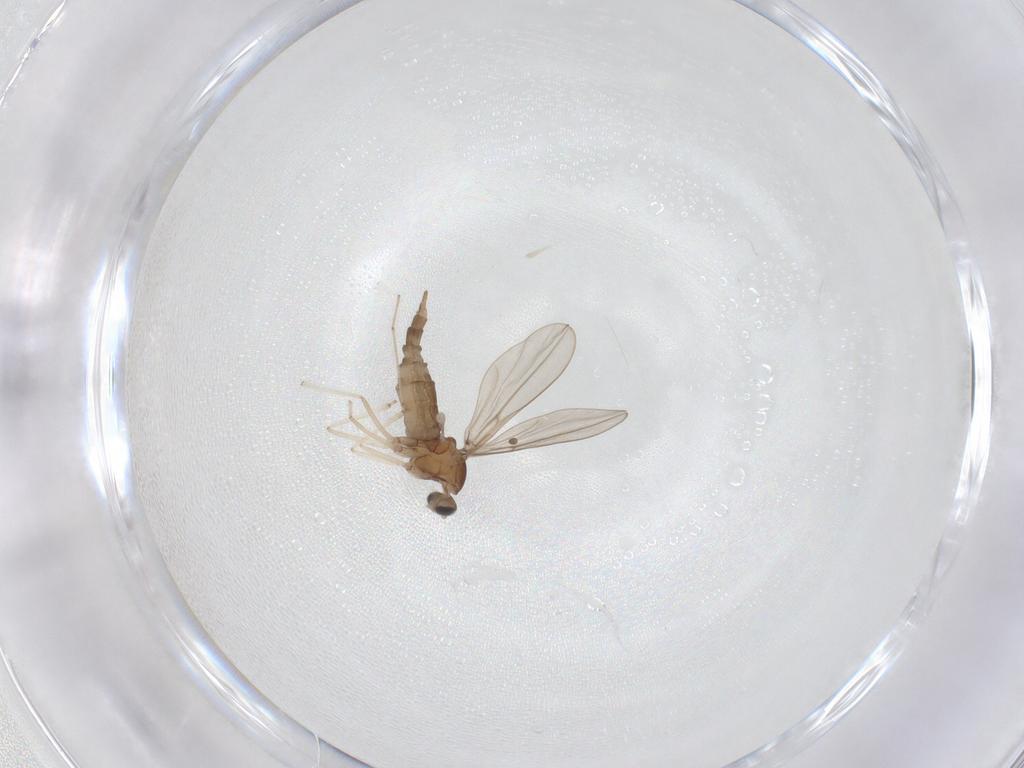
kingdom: Animalia
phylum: Arthropoda
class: Insecta
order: Diptera
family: Cecidomyiidae
